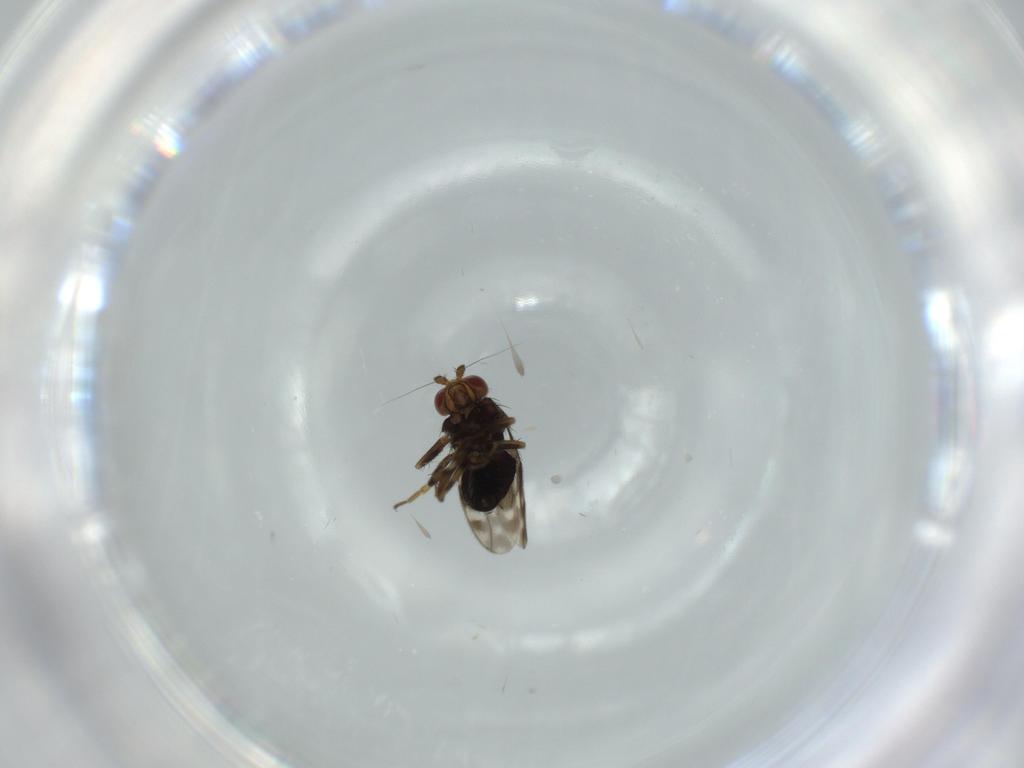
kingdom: Animalia
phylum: Arthropoda
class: Insecta
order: Diptera
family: Sphaeroceridae
